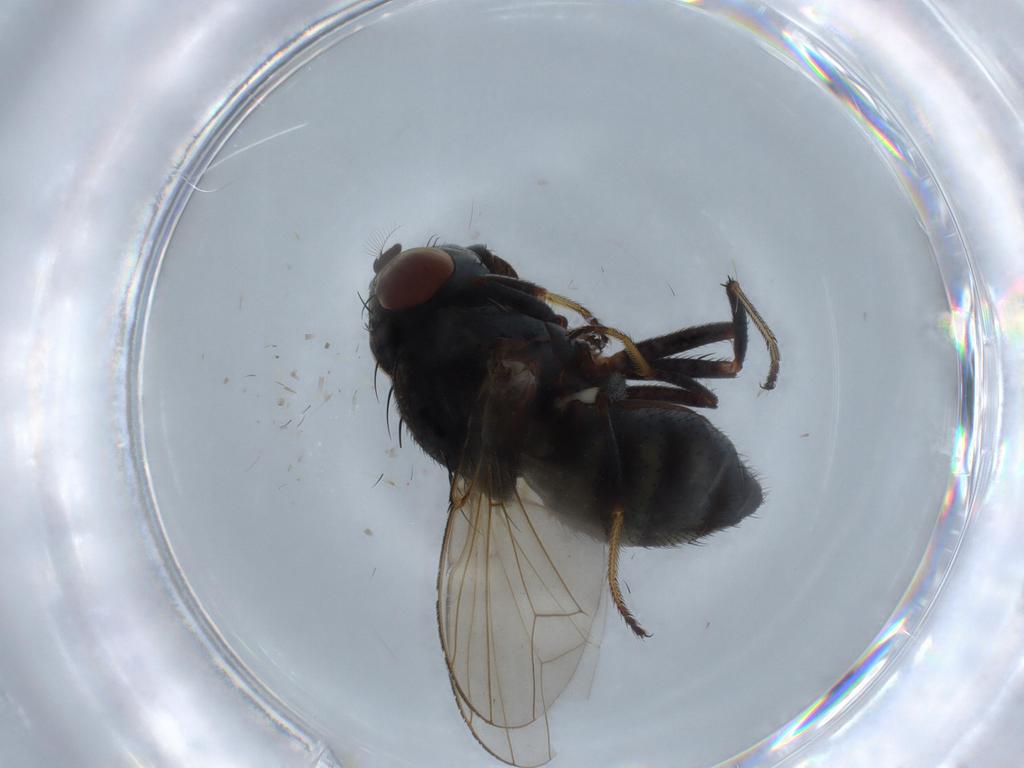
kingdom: Animalia
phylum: Arthropoda
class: Insecta
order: Diptera
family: Ephydridae
